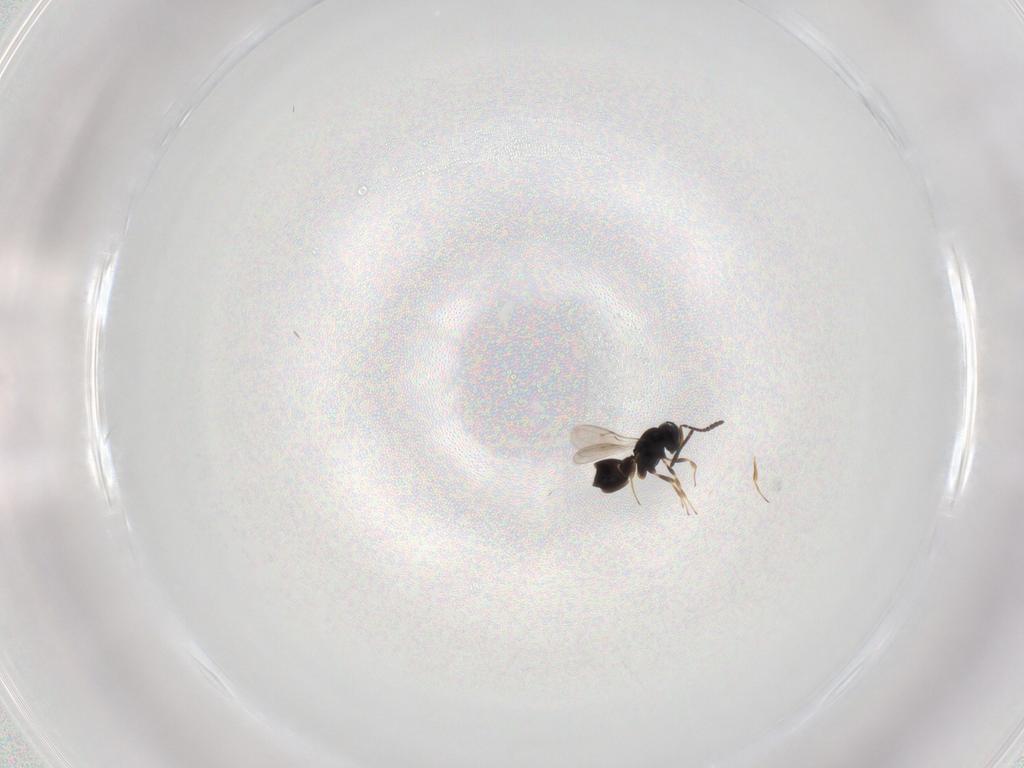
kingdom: Animalia
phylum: Arthropoda
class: Insecta
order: Hymenoptera
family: Scelionidae
